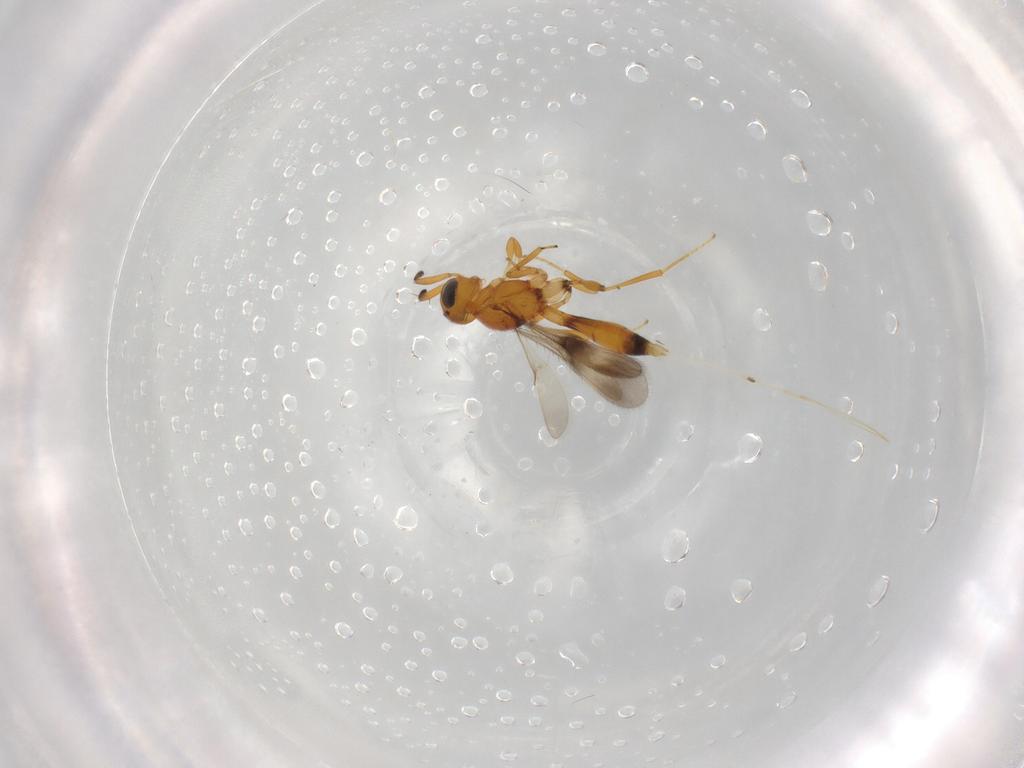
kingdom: Animalia
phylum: Arthropoda
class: Insecta
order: Hymenoptera
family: Scelionidae
